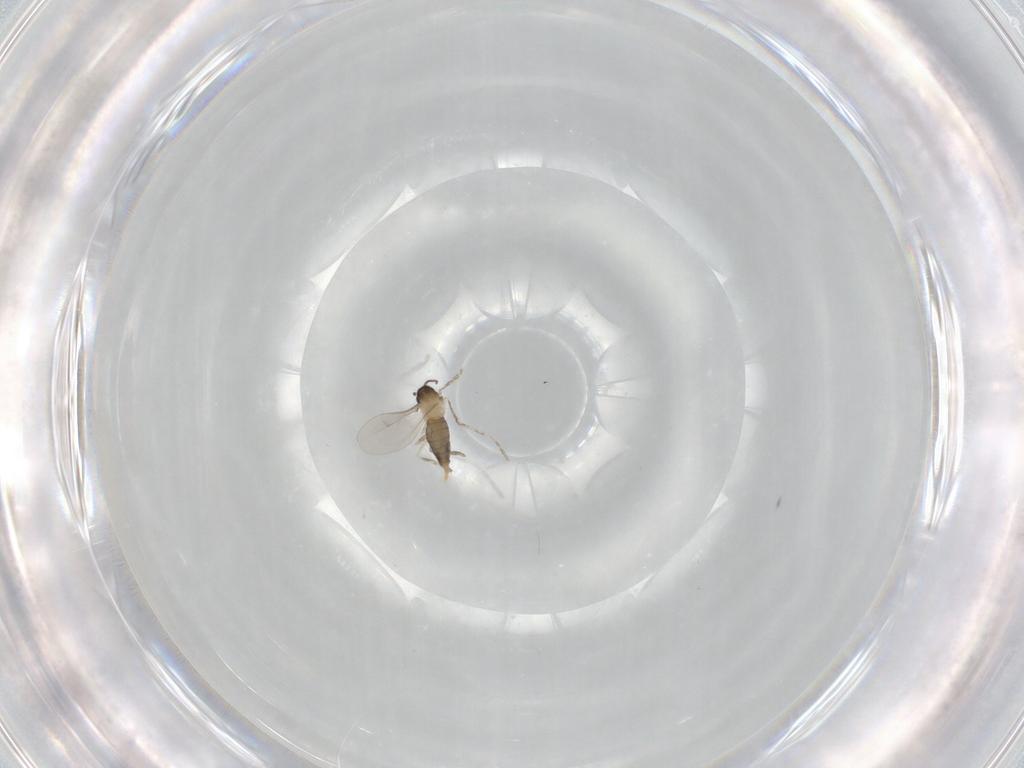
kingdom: Animalia
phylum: Arthropoda
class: Insecta
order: Diptera
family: Cecidomyiidae
